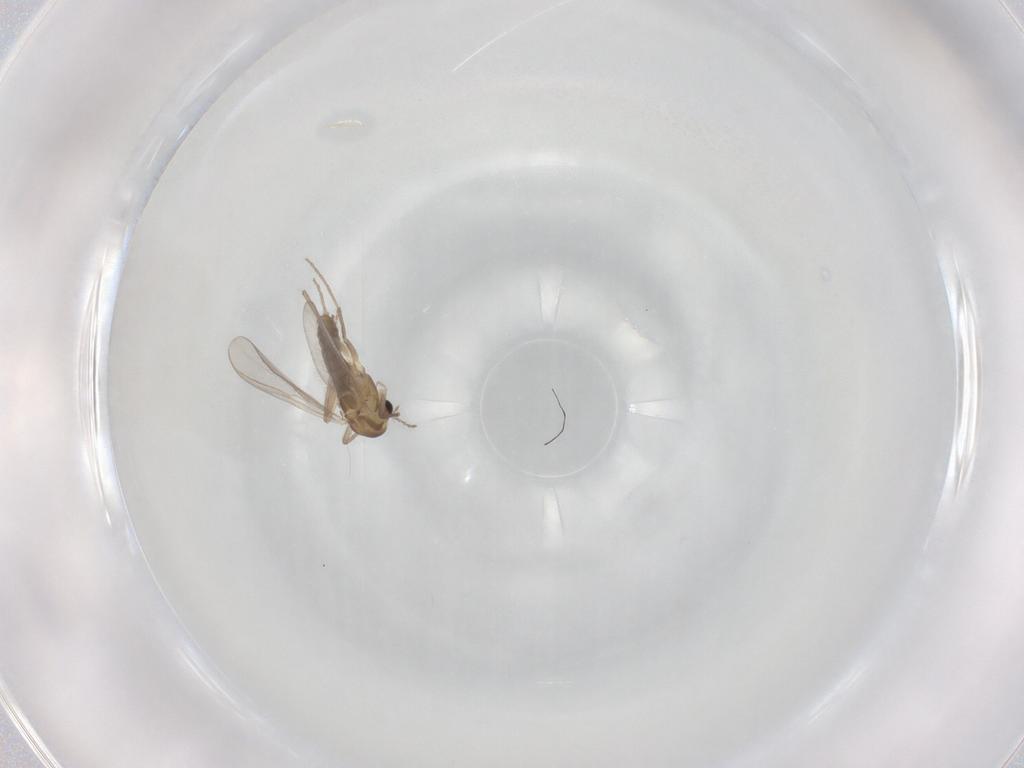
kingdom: Animalia
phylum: Arthropoda
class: Insecta
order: Diptera
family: Chironomidae
